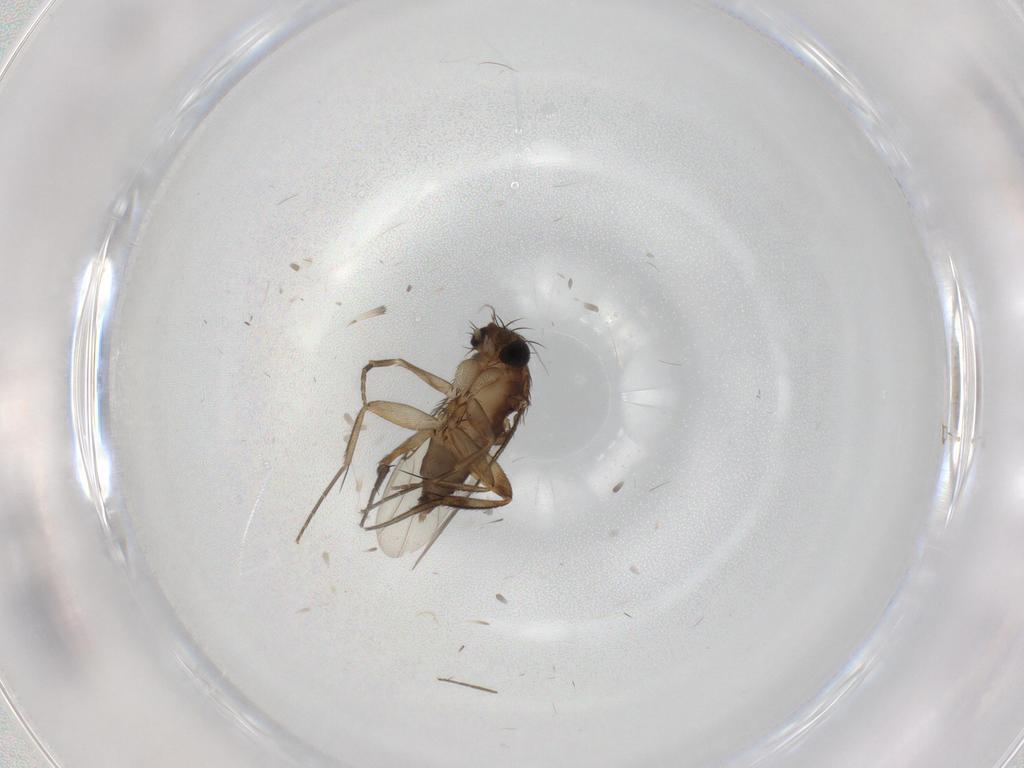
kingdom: Animalia
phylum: Arthropoda
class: Insecta
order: Diptera
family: Phoridae
